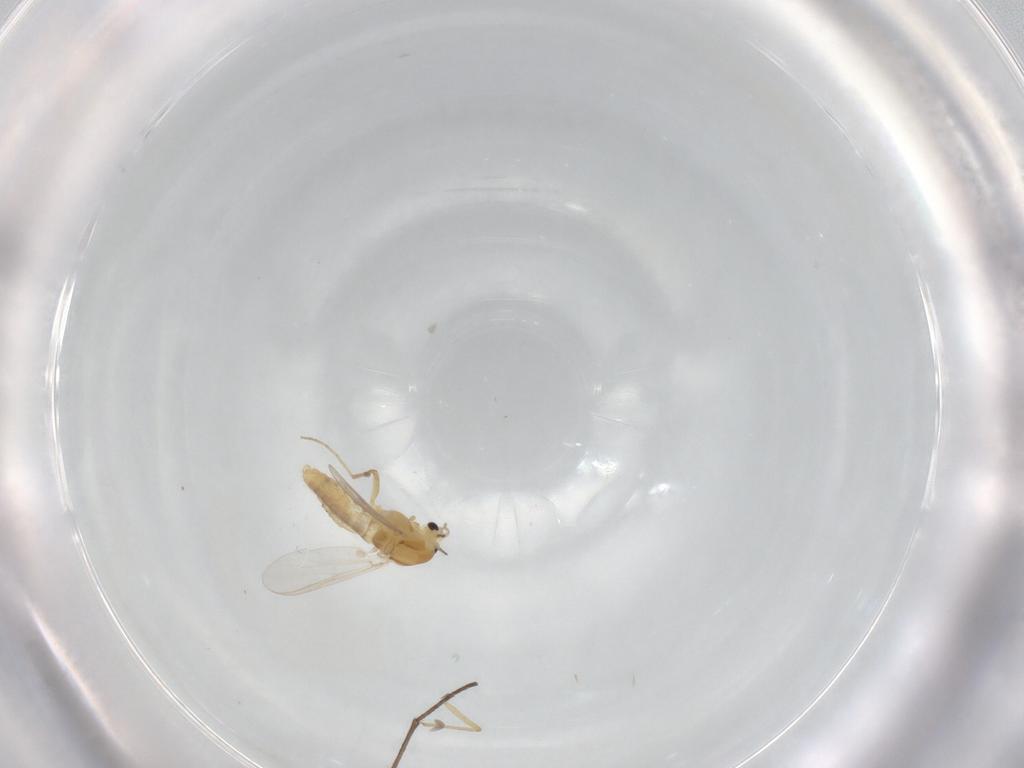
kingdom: Animalia
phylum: Arthropoda
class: Insecta
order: Diptera
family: Chironomidae
